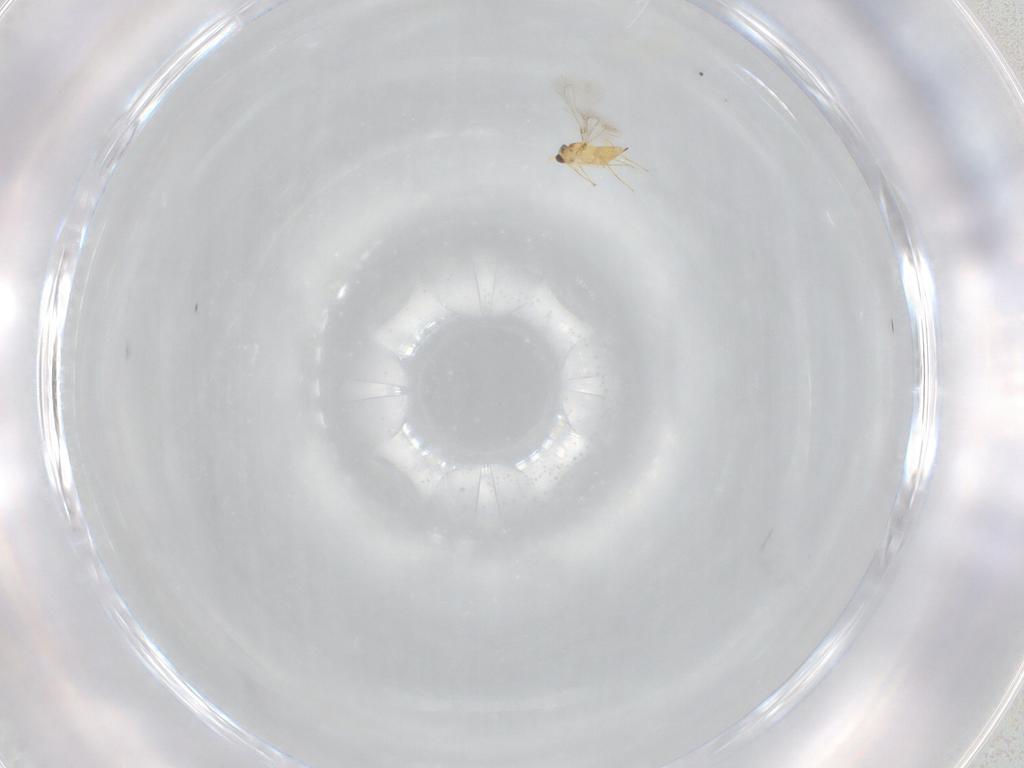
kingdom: Animalia
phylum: Arthropoda
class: Insecta
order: Hymenoptera
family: Mymaridae
